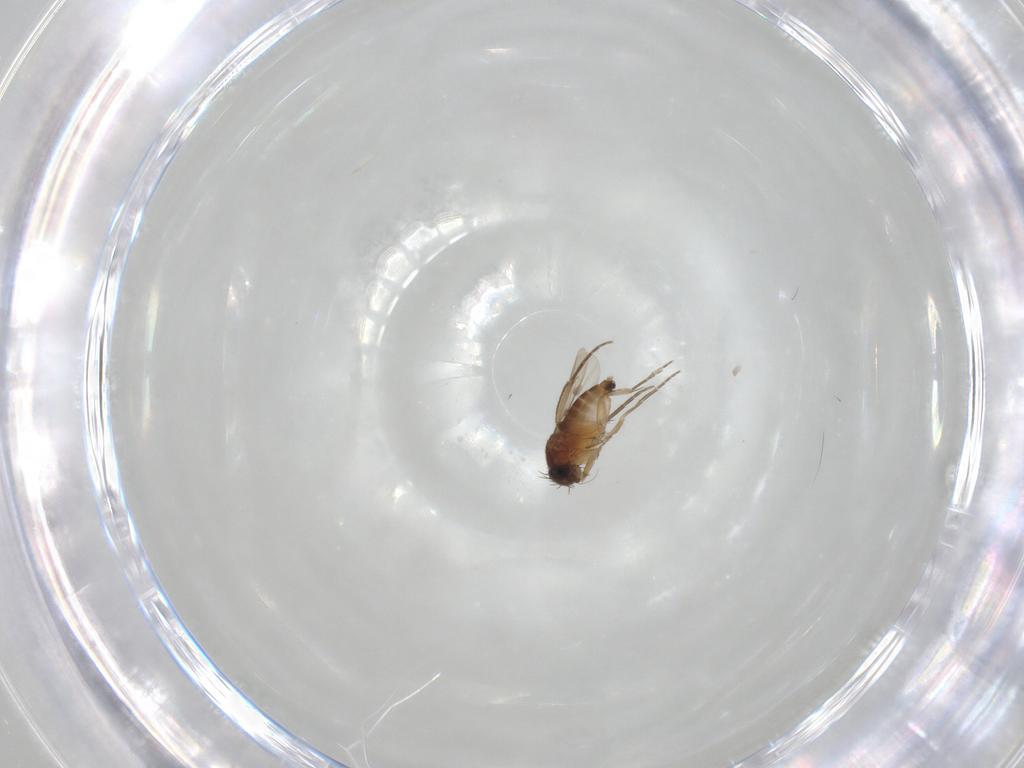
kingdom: Animalia
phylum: Arthropoda
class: Insecta
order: Diptera
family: Phoridae
